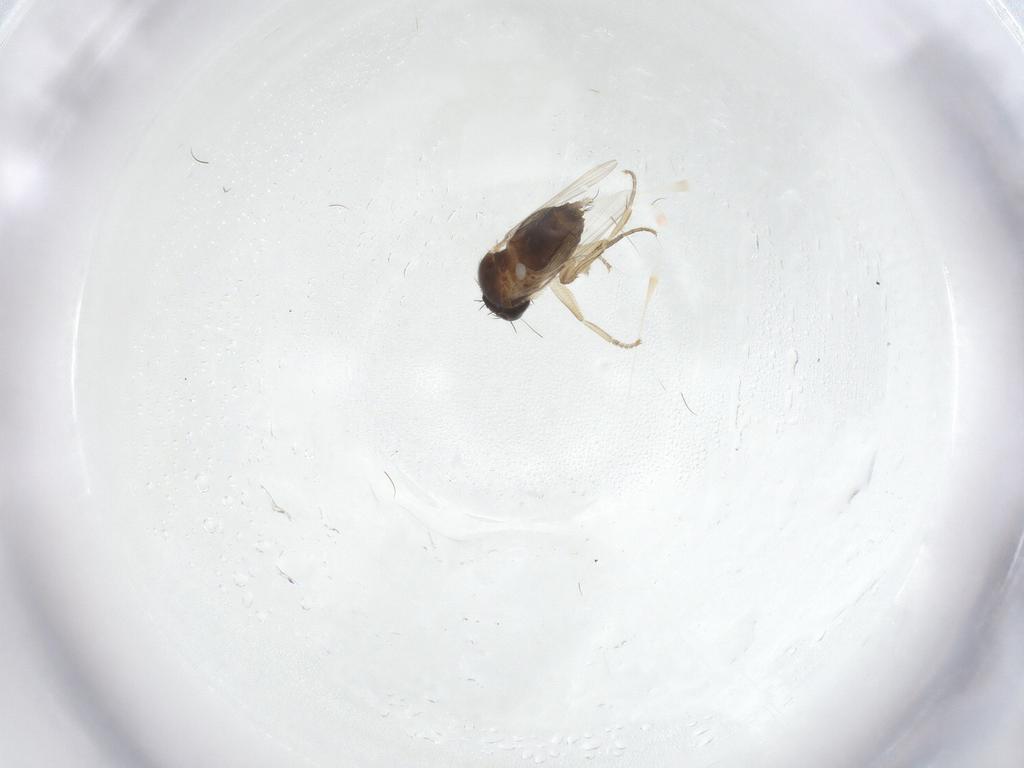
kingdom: Animalia
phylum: Arthropoda
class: Insecta
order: Diptera
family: Phoridae
